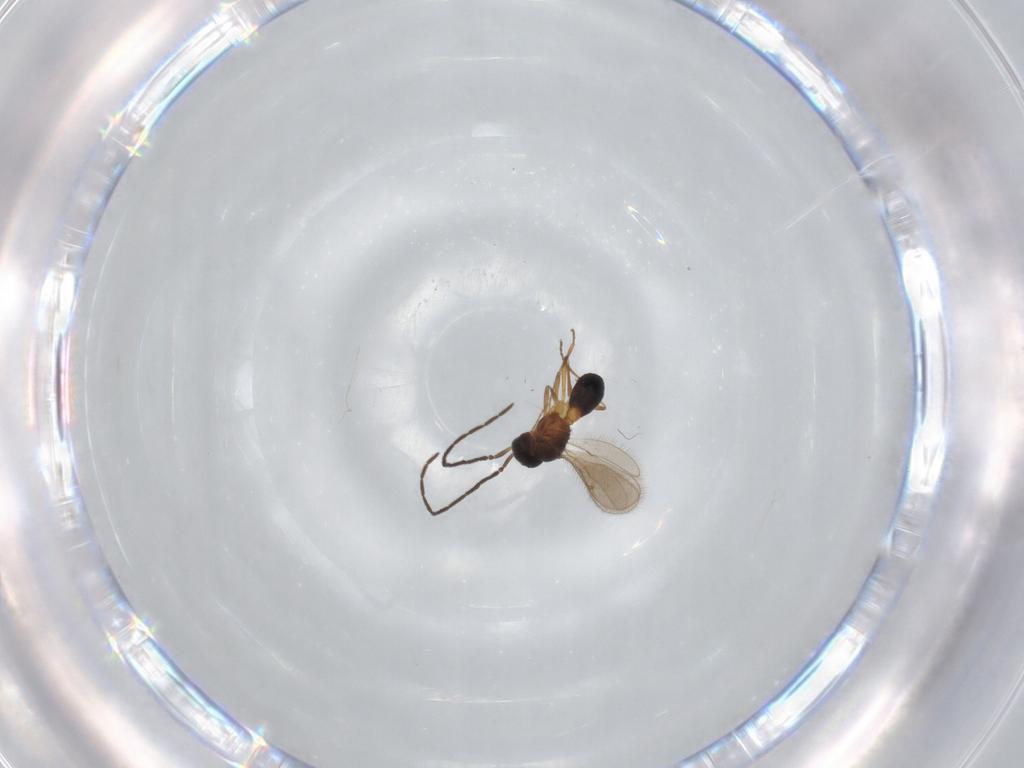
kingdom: Animalia
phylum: Arthropoda
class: Insecta
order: Hymenoptera
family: Scelionidae
